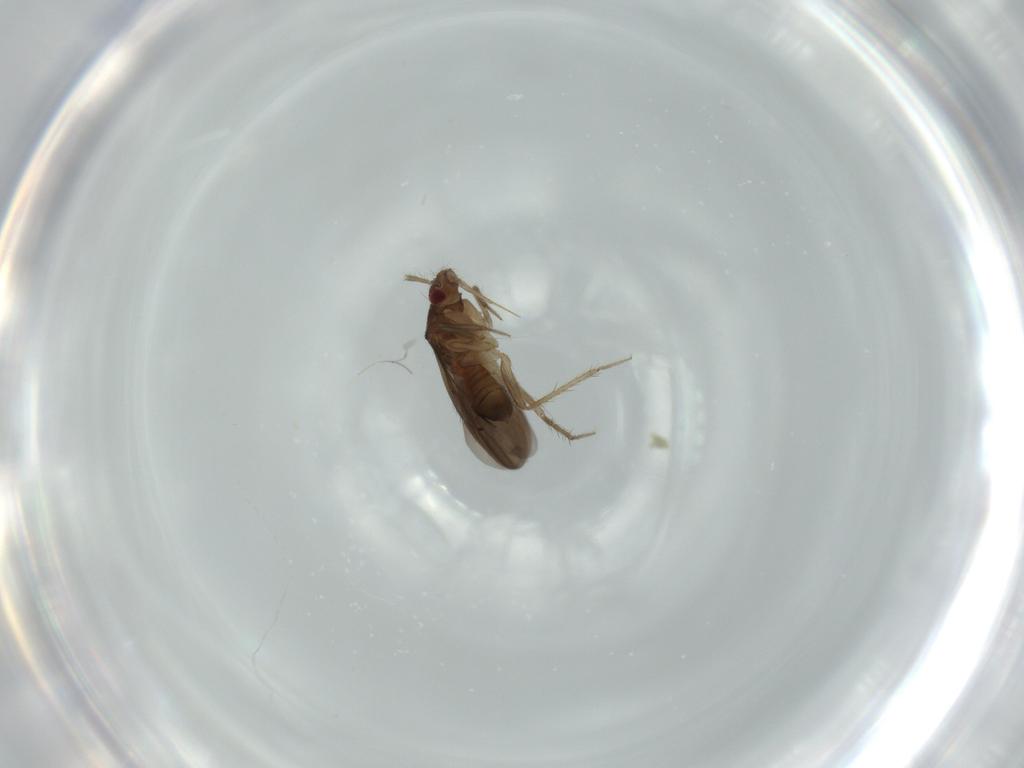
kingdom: Animalia
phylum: Arthropoda
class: Insecta
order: Hemiptera
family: Ceratocombidae
